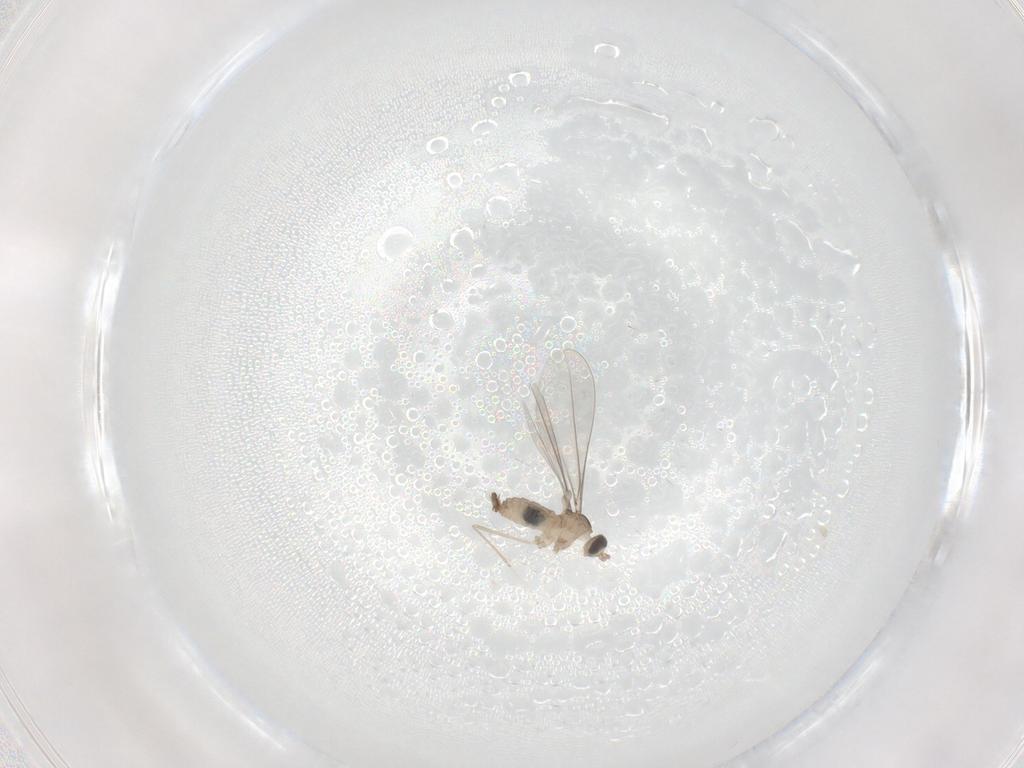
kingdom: Animalia
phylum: Arthropoda
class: Insecta
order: Diptera
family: Cecidomyiidae
